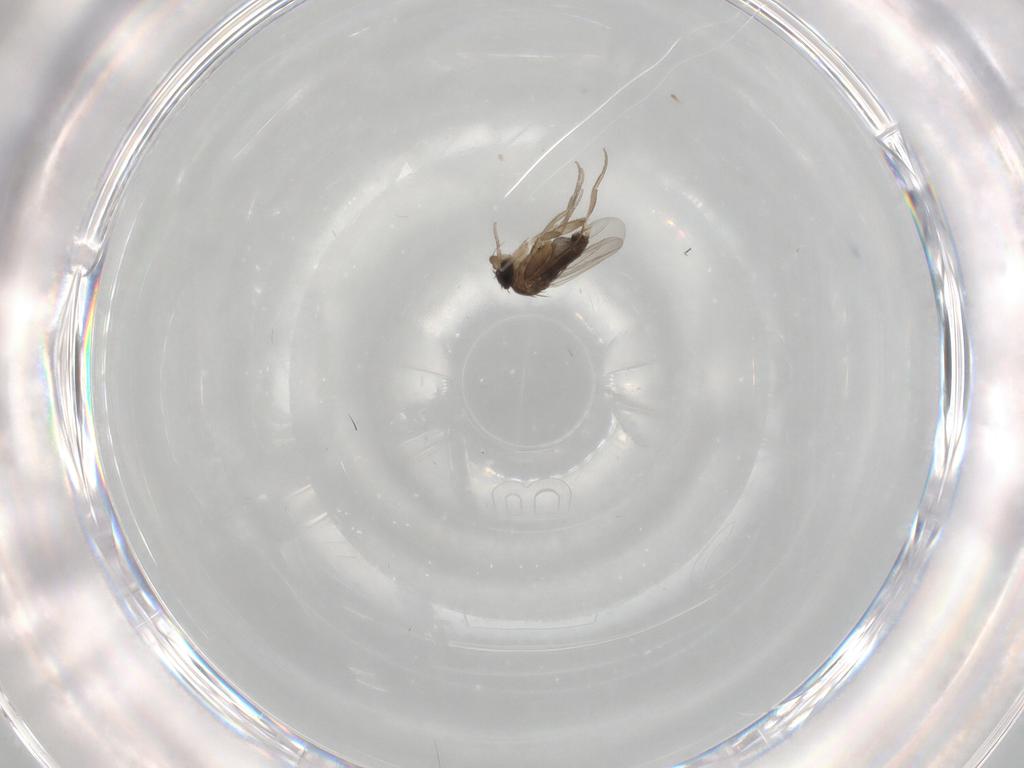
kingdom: Animalia
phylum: Arthropoda
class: Insecta
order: Diptera
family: Phoridae
